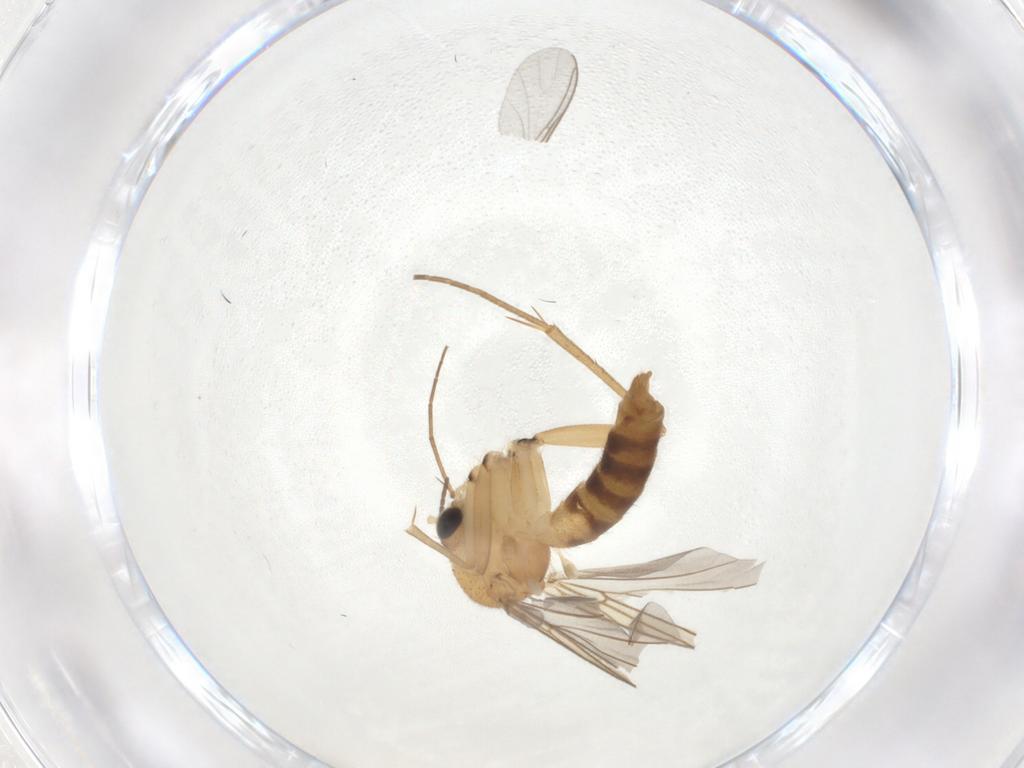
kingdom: Animalia
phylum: Arthropoda
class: Insecta
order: Diptera
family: Mycetophilidae
